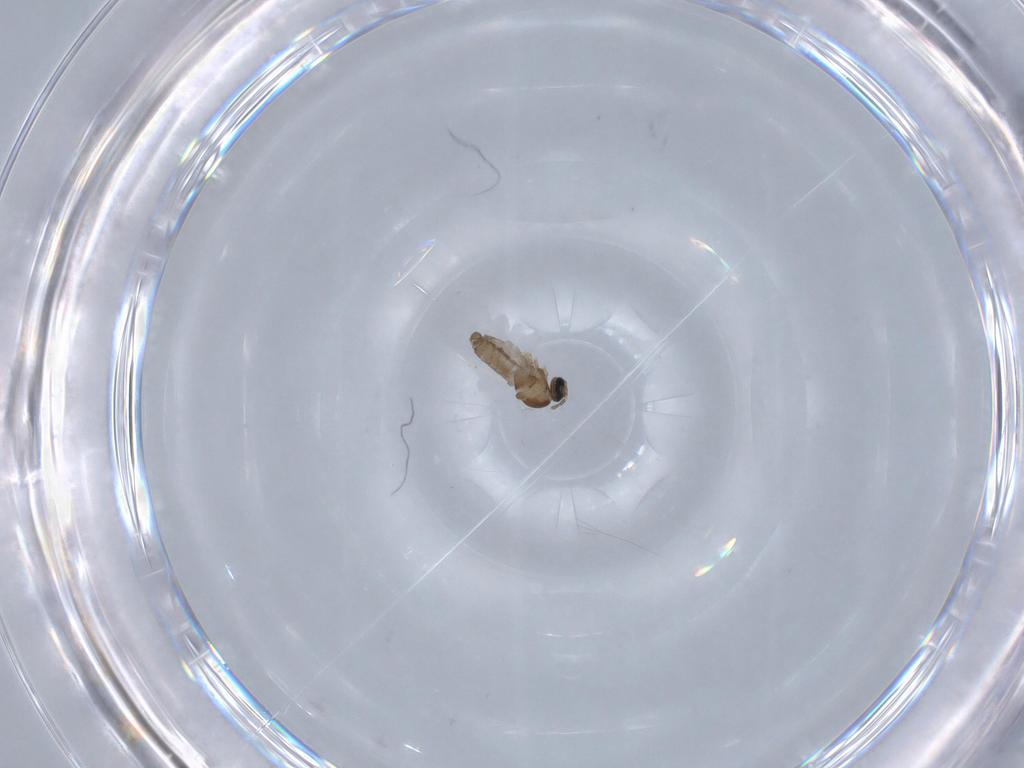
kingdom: Animalia
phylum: Arthropoda
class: Insecta
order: Diptera
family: Cecidomyiidae
